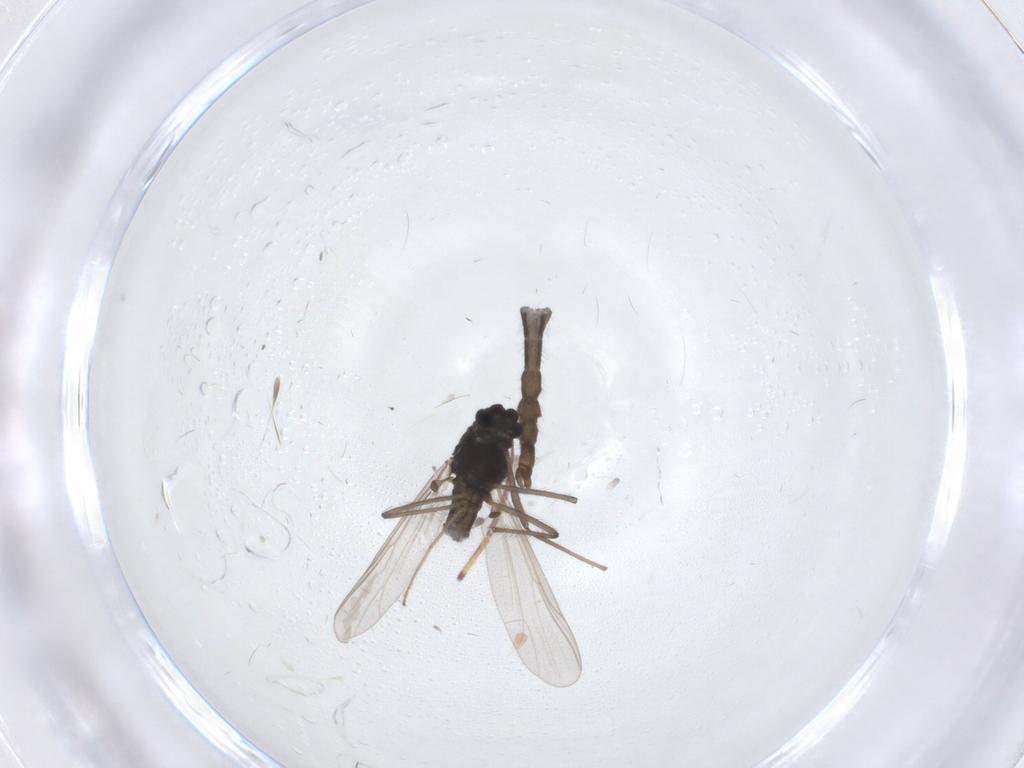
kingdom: Animalia
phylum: Arthropoda
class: Insecta
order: Diptera
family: Chironomidae
